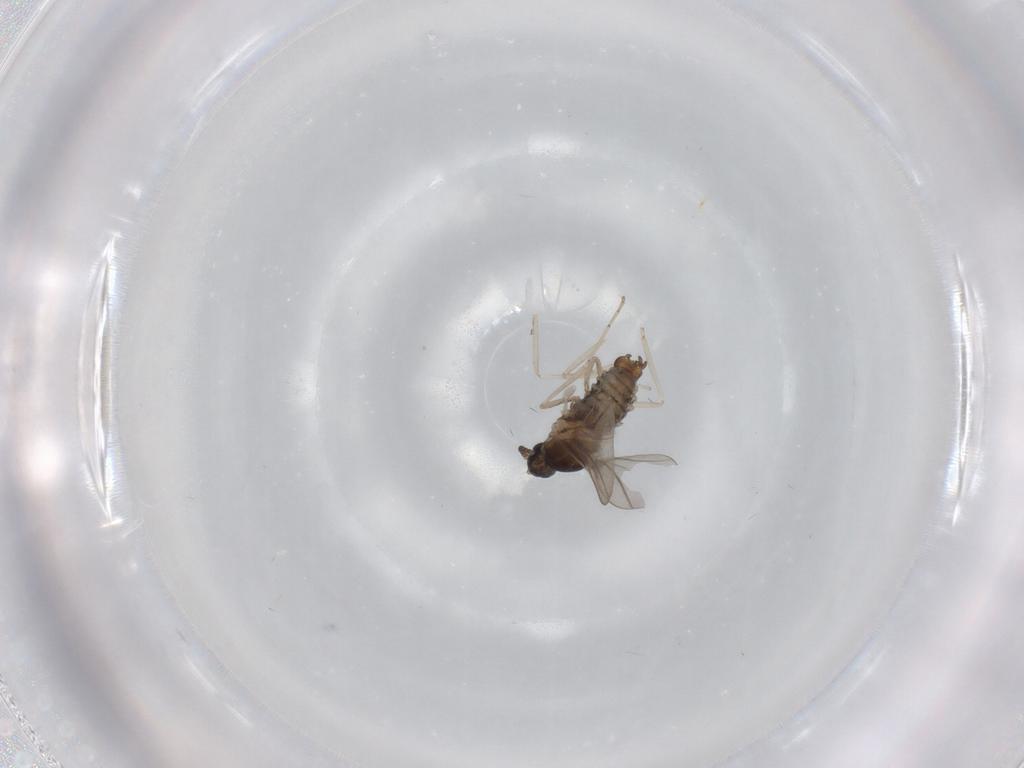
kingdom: Animalia
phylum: Arthropoda
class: Insecta
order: Diptera
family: Cecidomyiidae
